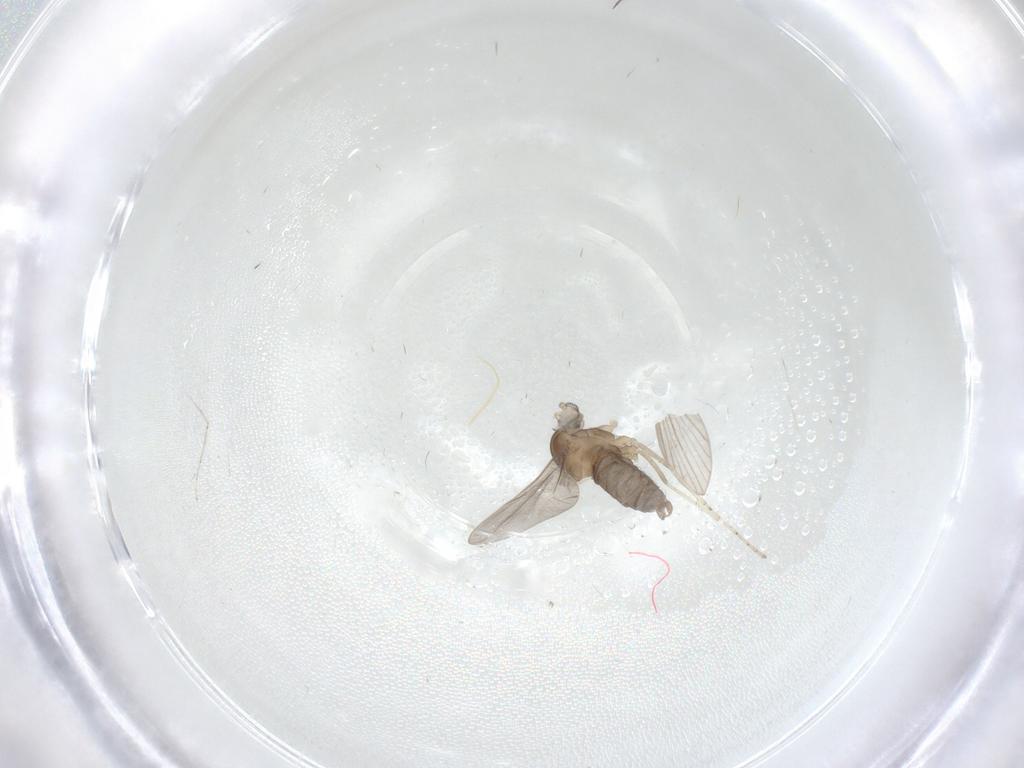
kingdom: Animalia
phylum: Arthropoda
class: Insecta
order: Diptera
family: Cecidomyiidae
